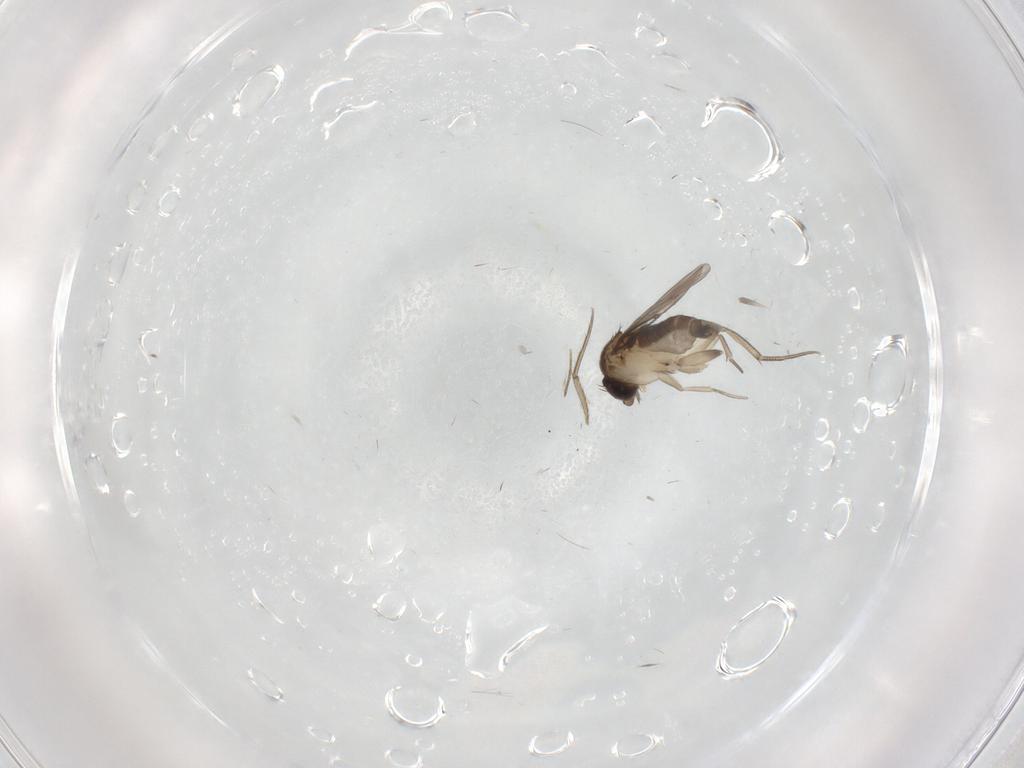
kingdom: Animalia
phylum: Arthropoda
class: Insecta
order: Diptera
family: Phoridae
